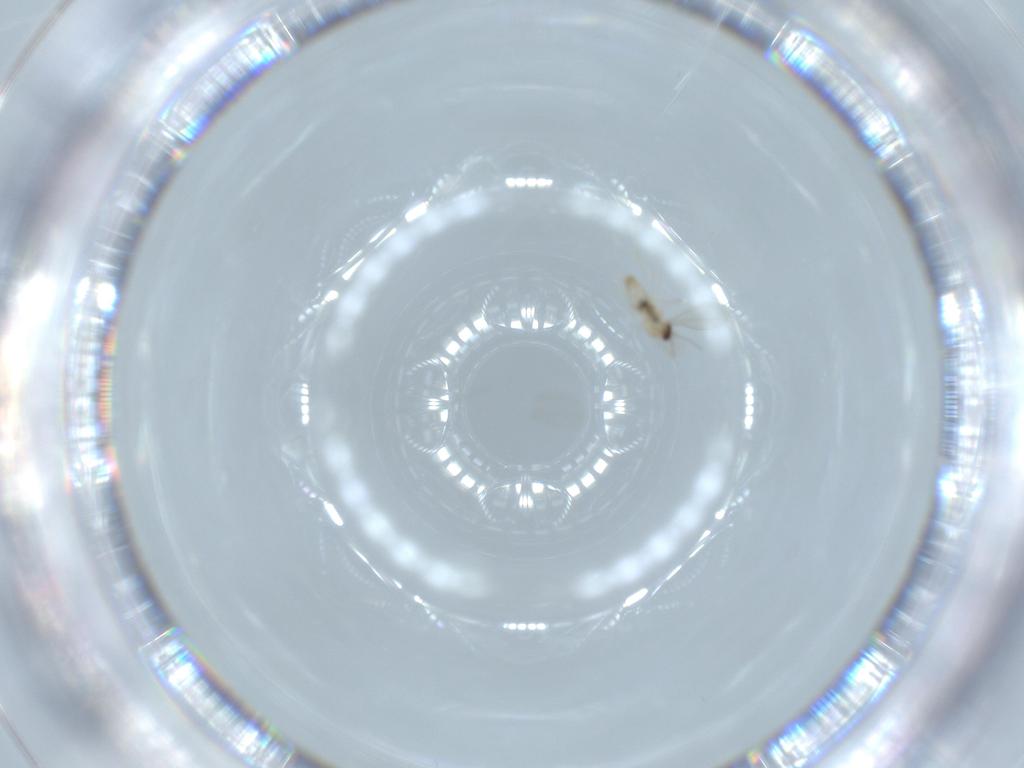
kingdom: Animalia
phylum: Arthropoda
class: Insecta
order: Diptera
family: Cecidomyiidae
